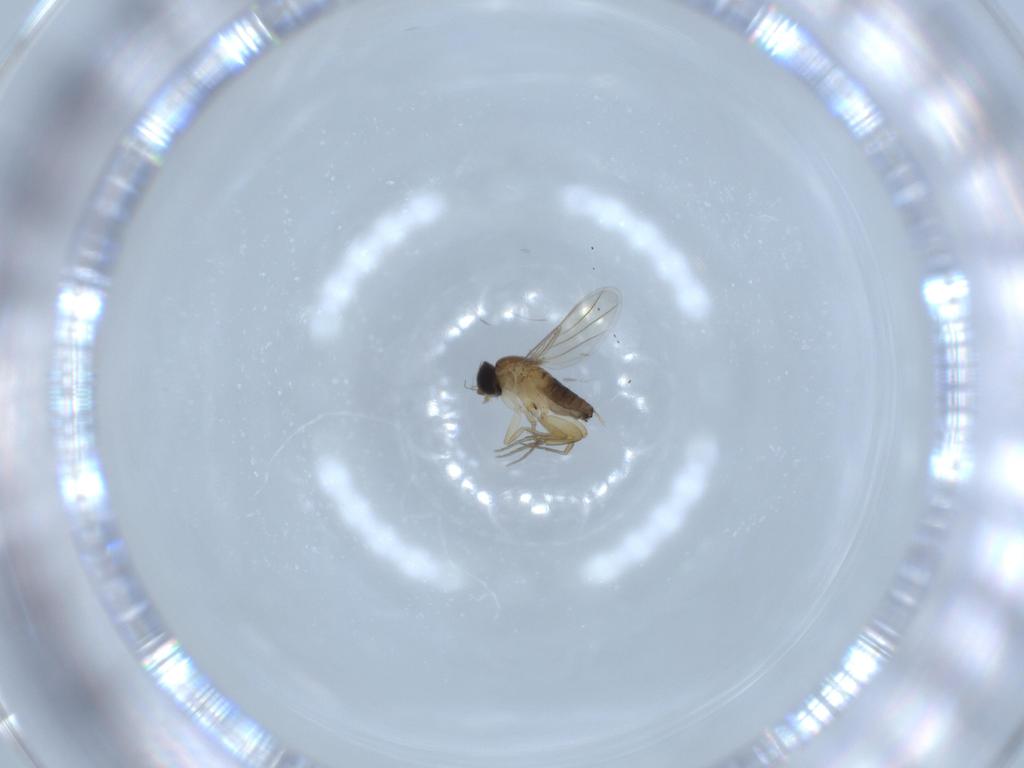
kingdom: Animalia
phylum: Arthropoda
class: Insecta
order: Diptera
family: Phoridae
